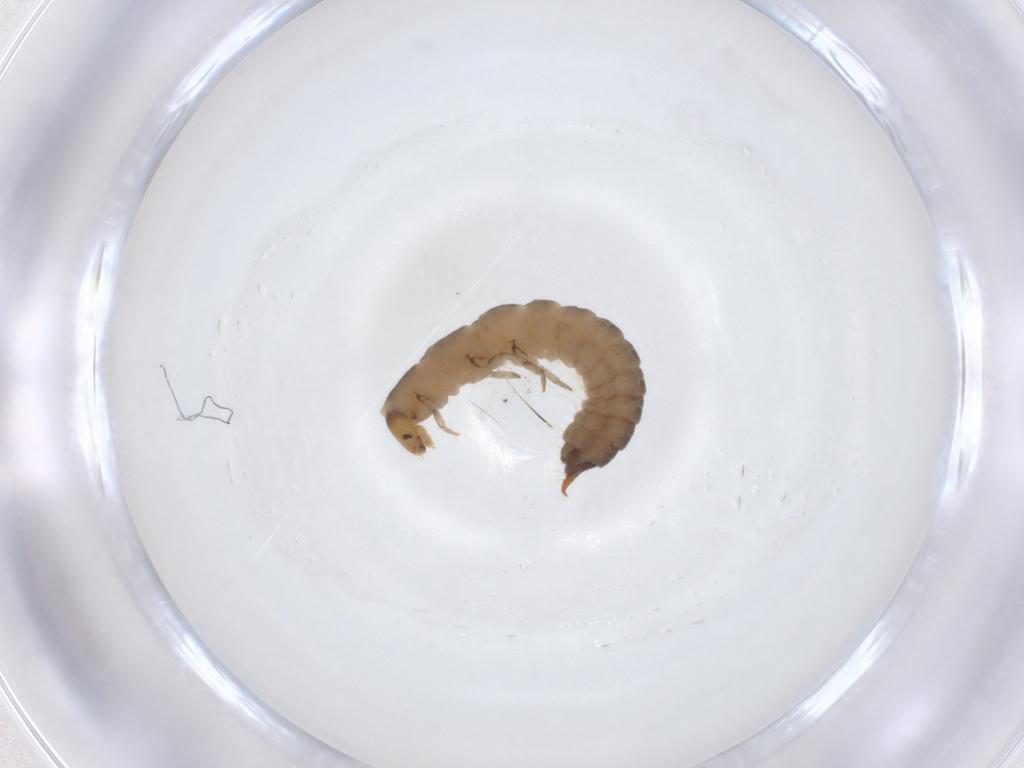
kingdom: Animalia
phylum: Arthropoda
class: Insecta
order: Coleoptera
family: Melyridae
